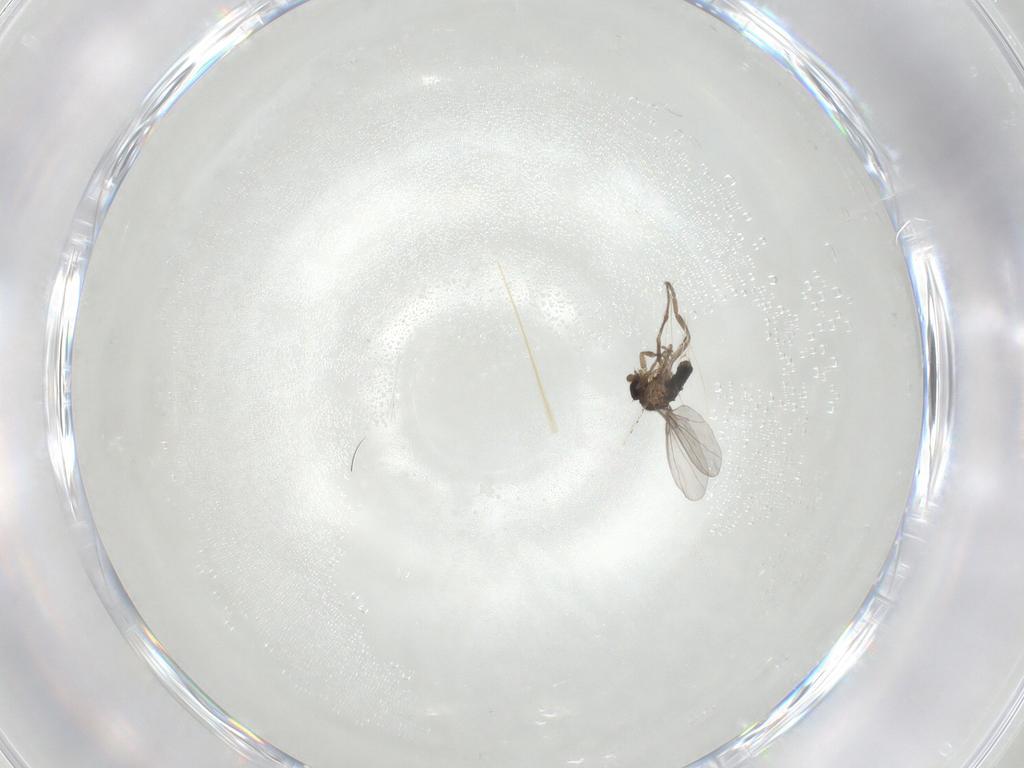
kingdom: Animalia
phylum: Arthropoda
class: Insecta
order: Diptera
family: Phoridae
